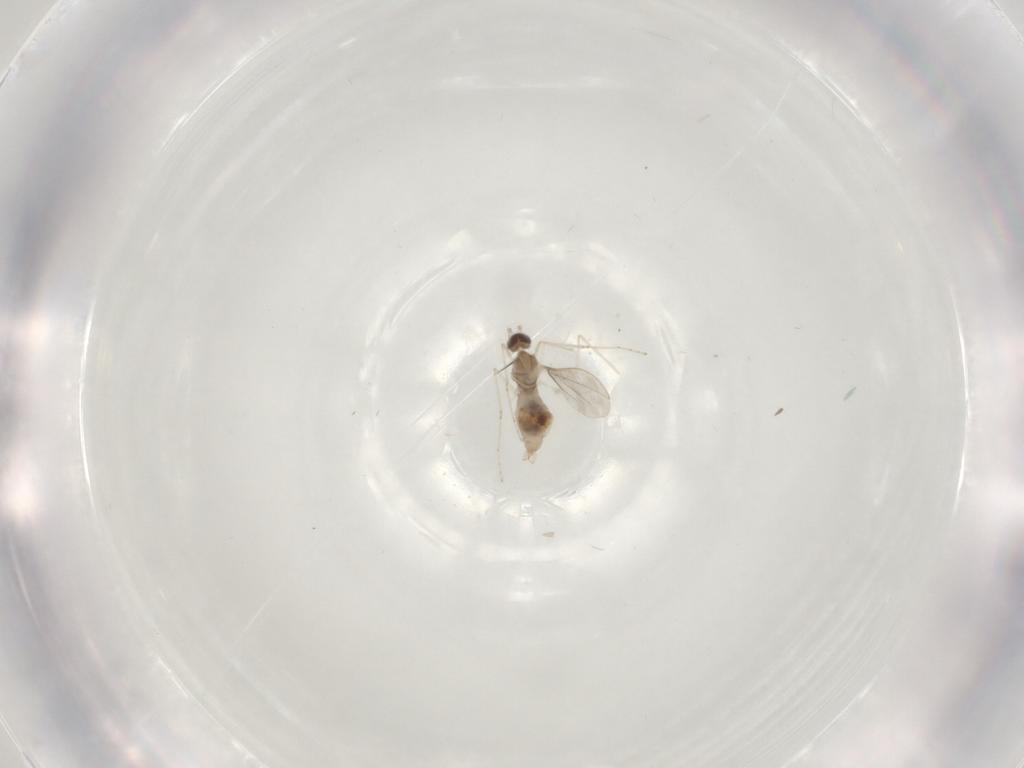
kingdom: Animalia
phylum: Arthropoda
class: Insecta
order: Diptera
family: Cecidomyiidae
